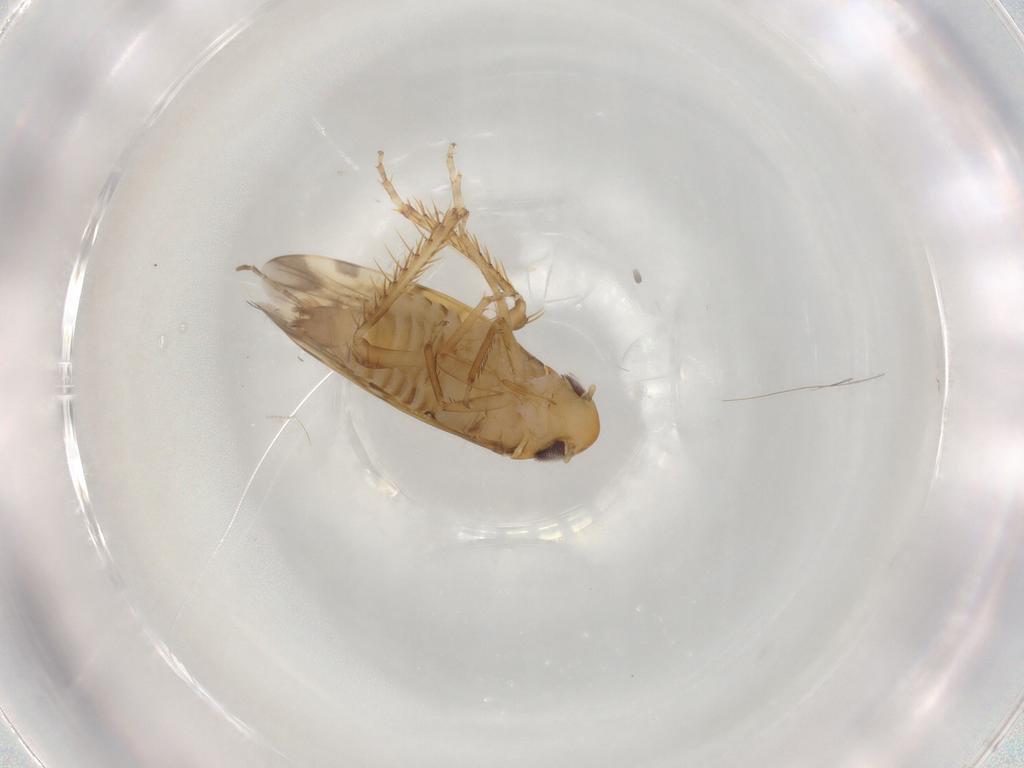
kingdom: Animalia
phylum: Arthropoda
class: Insecta
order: Hemiptera
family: Cicadellidae
